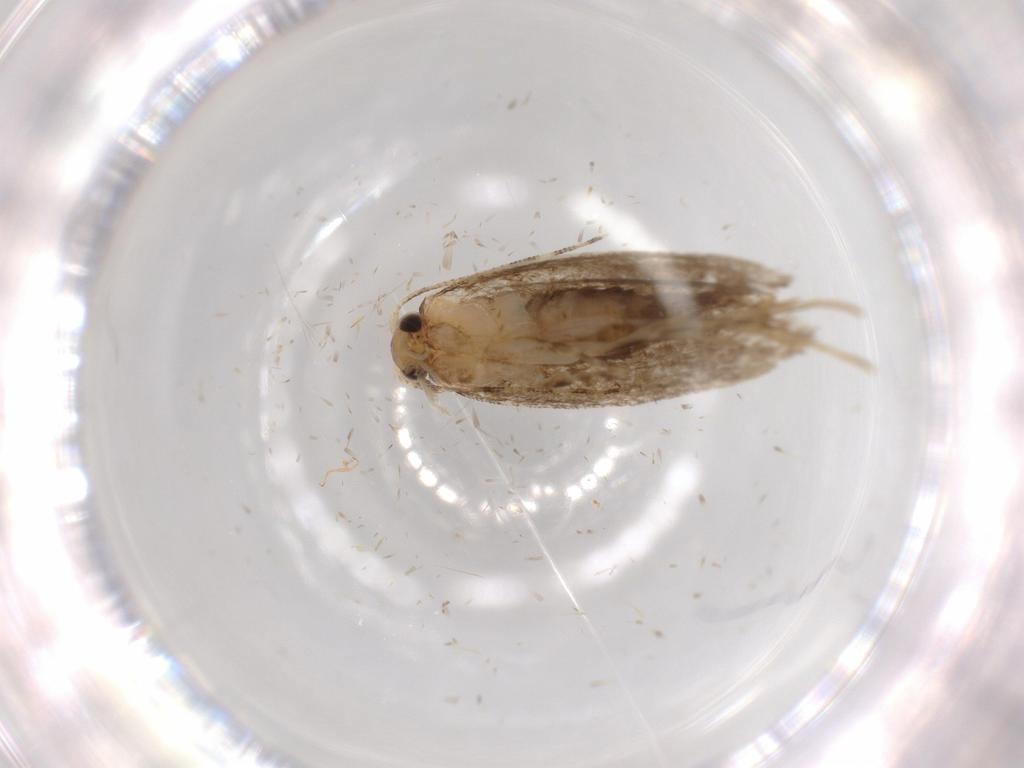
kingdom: Animalia
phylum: Arthropoda
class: Insecta
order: Lepidoptera
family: Tineidae
